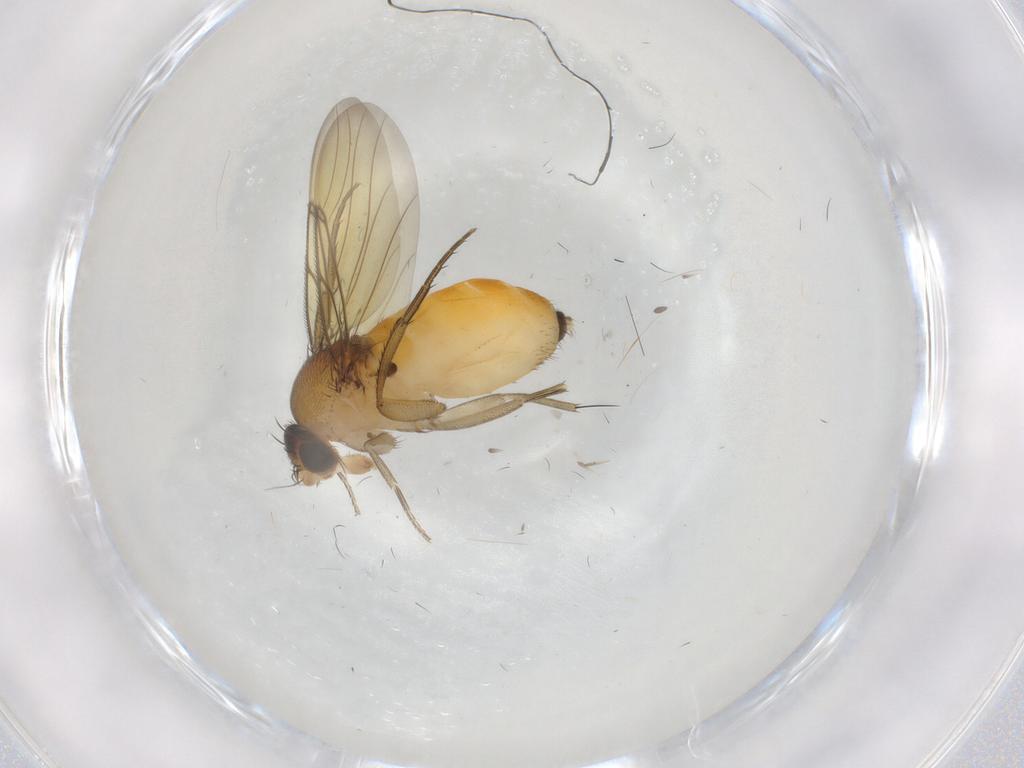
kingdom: Animalia
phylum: Arthropoda
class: Insecta
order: Diptera
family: Phoridae
